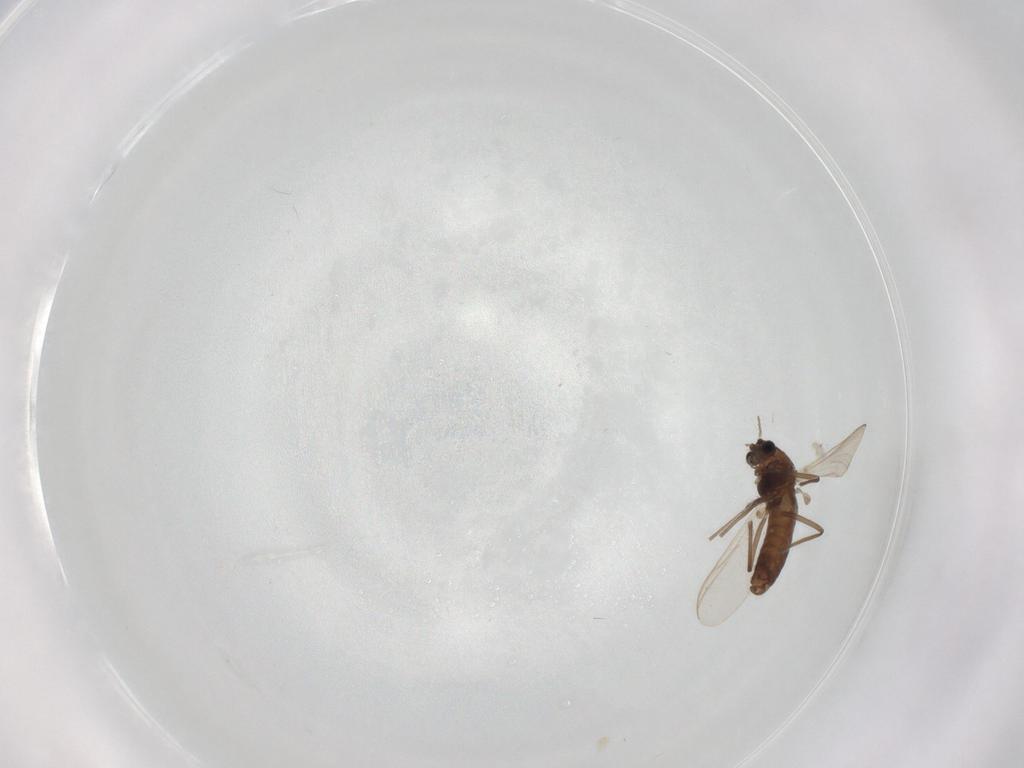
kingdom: Animalia
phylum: Arthropoda
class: Insecta
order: Diptera
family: Chironomidae
